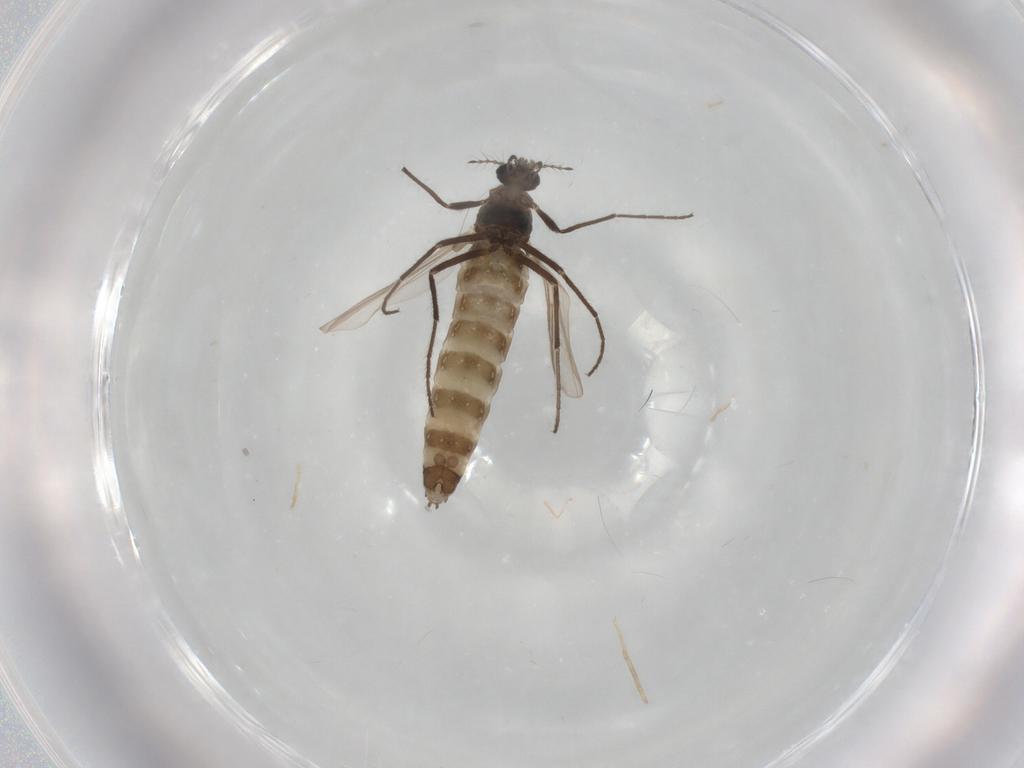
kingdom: Animalia
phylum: Arthropoda
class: Insecta
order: Diptera
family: Chironomidae
